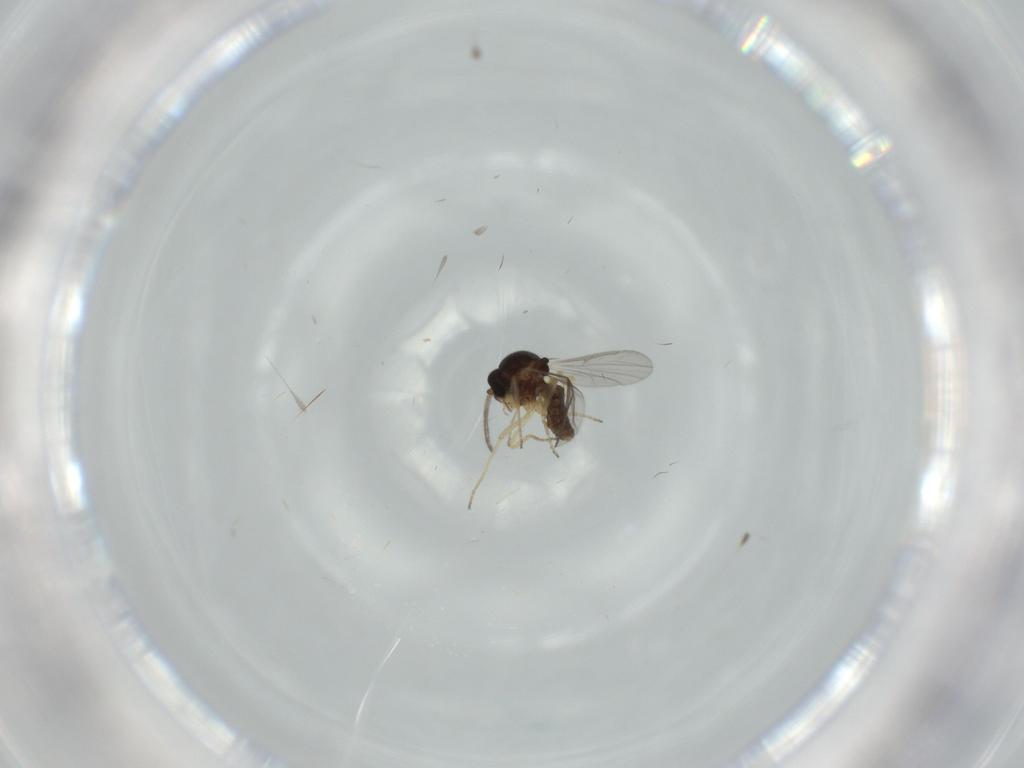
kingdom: Animalia
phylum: Arthropoda
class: Insecta
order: Diptera
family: Ceratopogonidae
